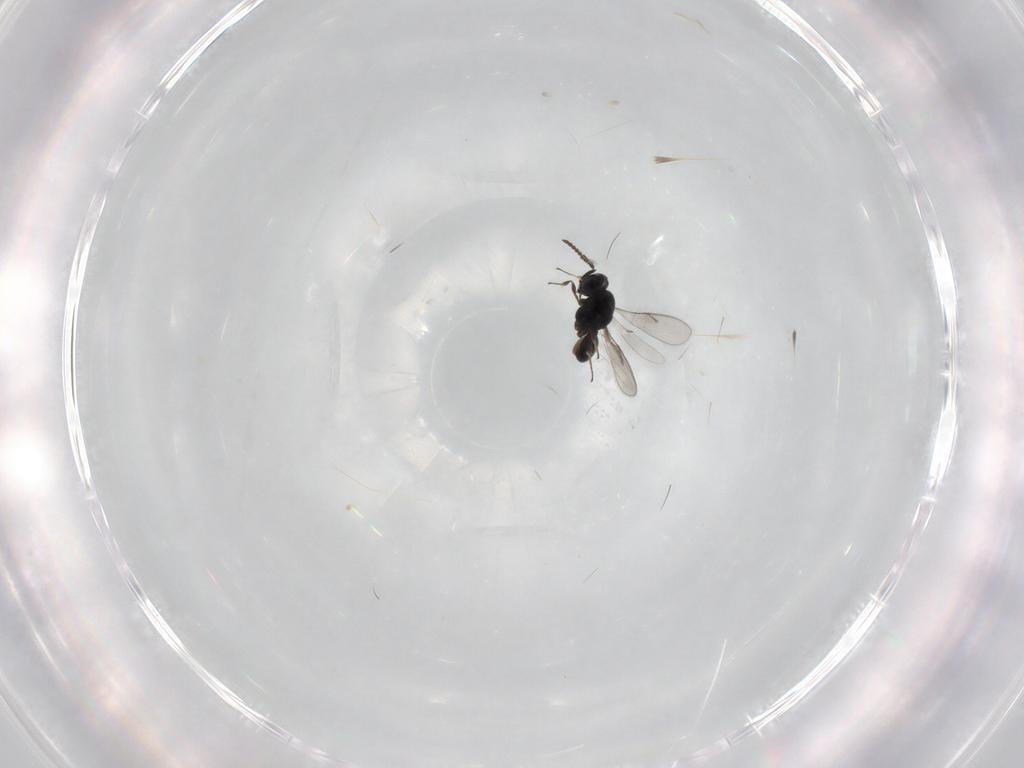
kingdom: Animalia
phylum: Arthropoda
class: Insecta
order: Hymenoptera
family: Scelionidae
